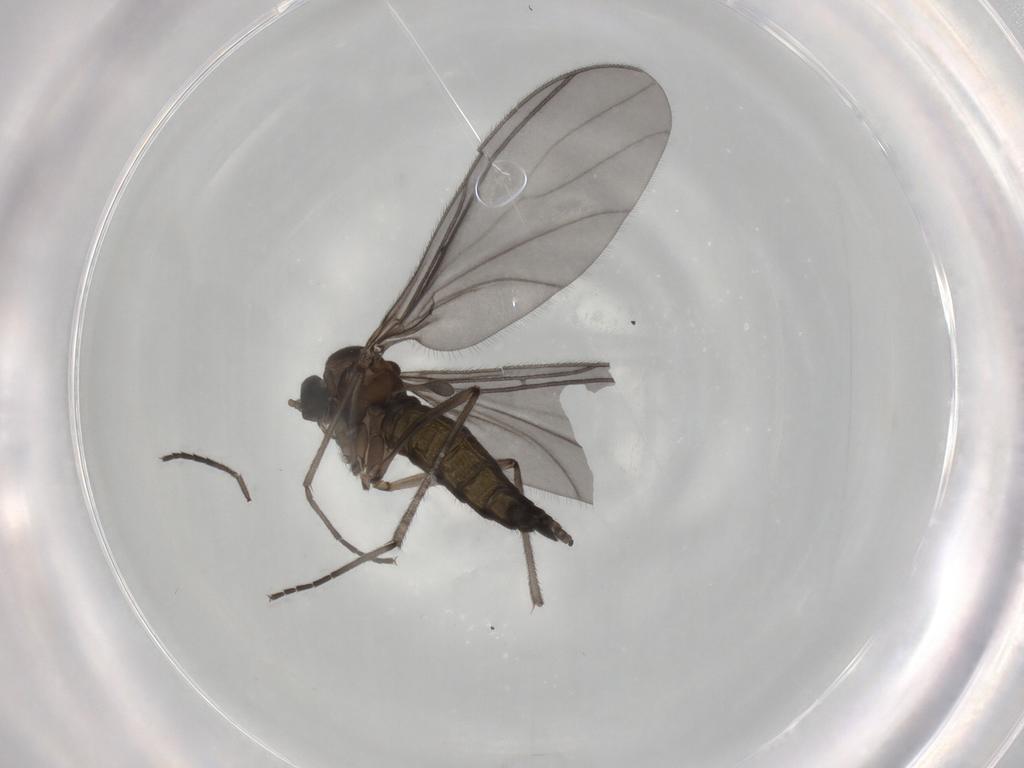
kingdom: Animalia
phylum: Arthropoda
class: Insecta
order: Diptera
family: Sciaridae
